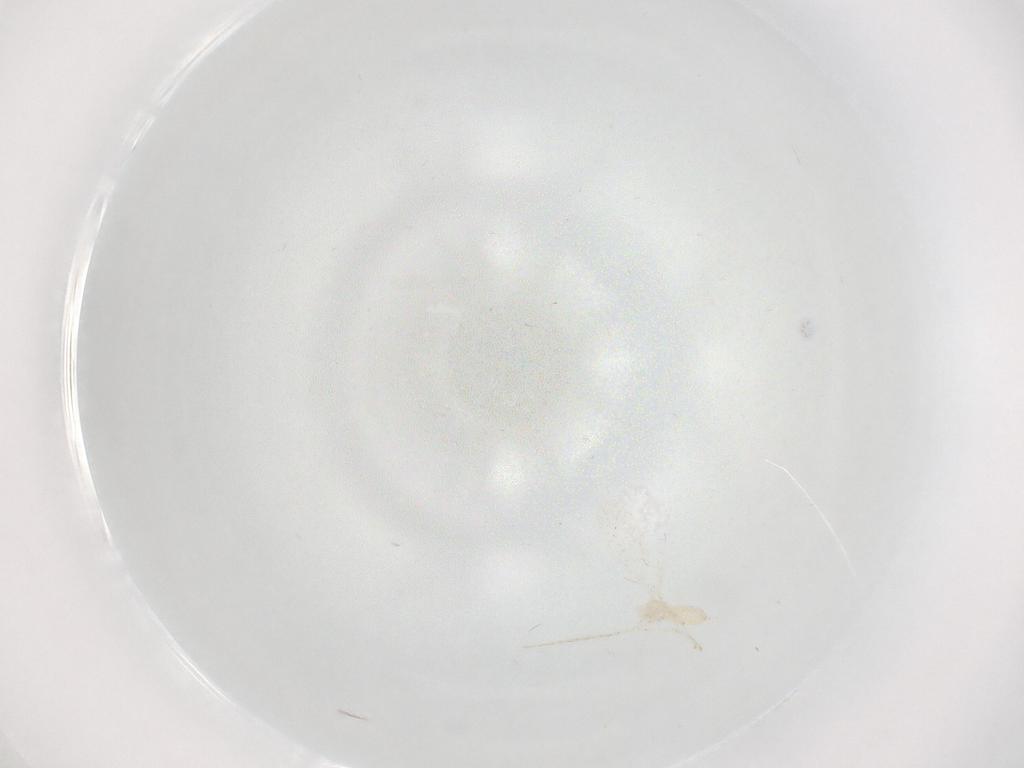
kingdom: Animalia
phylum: Arthropoda
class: Insecta
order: Diptera
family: Cecidomyiidae
